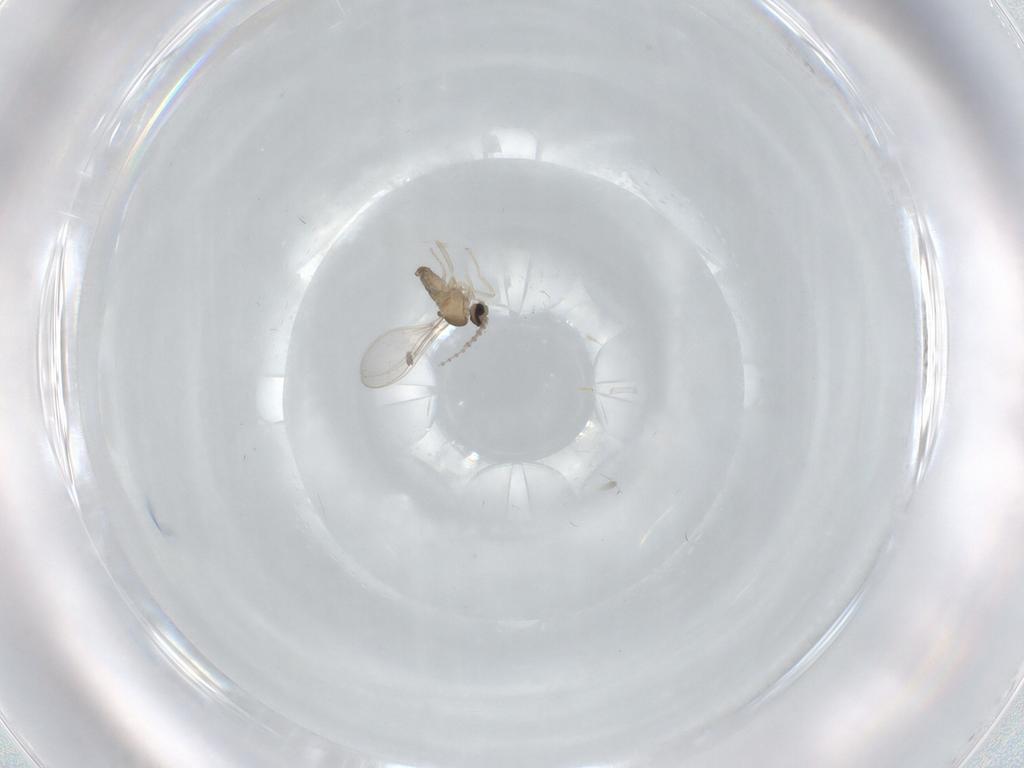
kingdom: Animalia
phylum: Arthropoda
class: Insecta
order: Diptera
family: Cecidomyiidae
